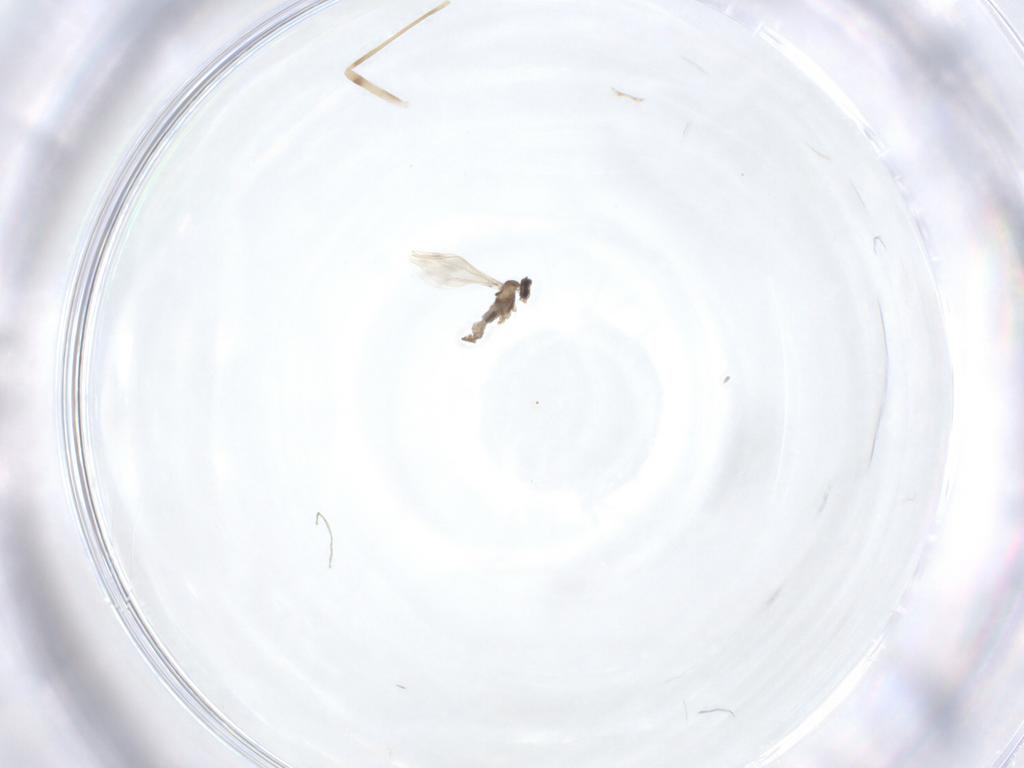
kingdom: Animalia
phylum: Arthropoda
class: Insecta
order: Diptera
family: Cecidomyiidae
